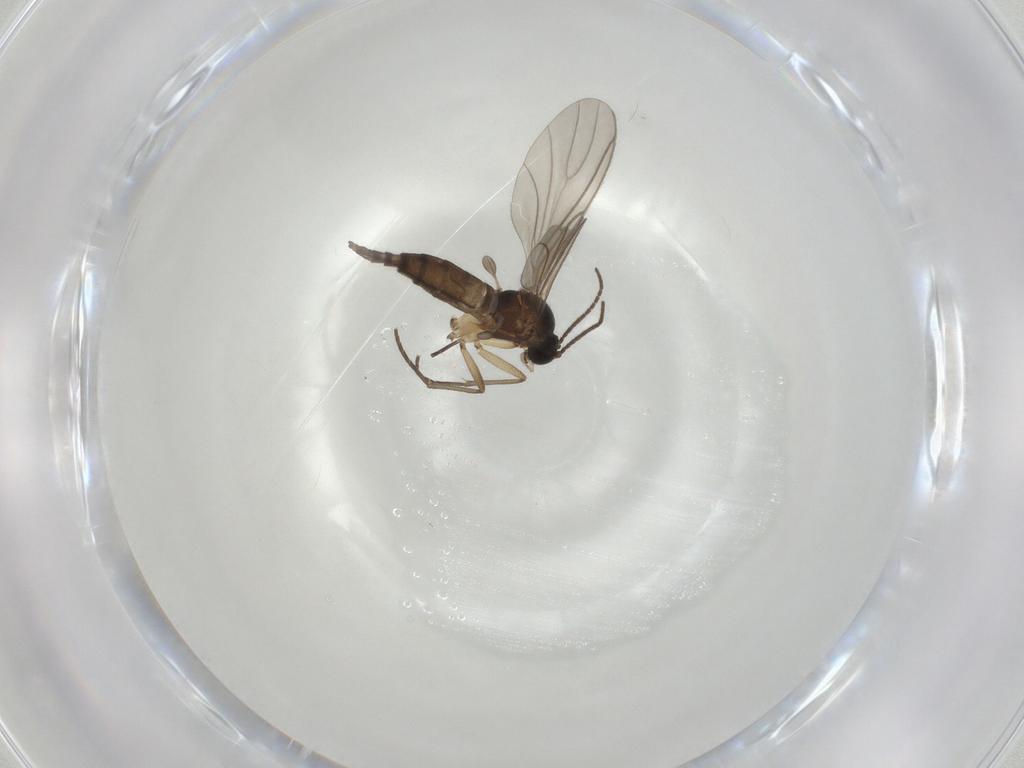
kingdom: Animalia
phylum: Arthropoda
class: Insecta
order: Diptera
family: Sciaridae
